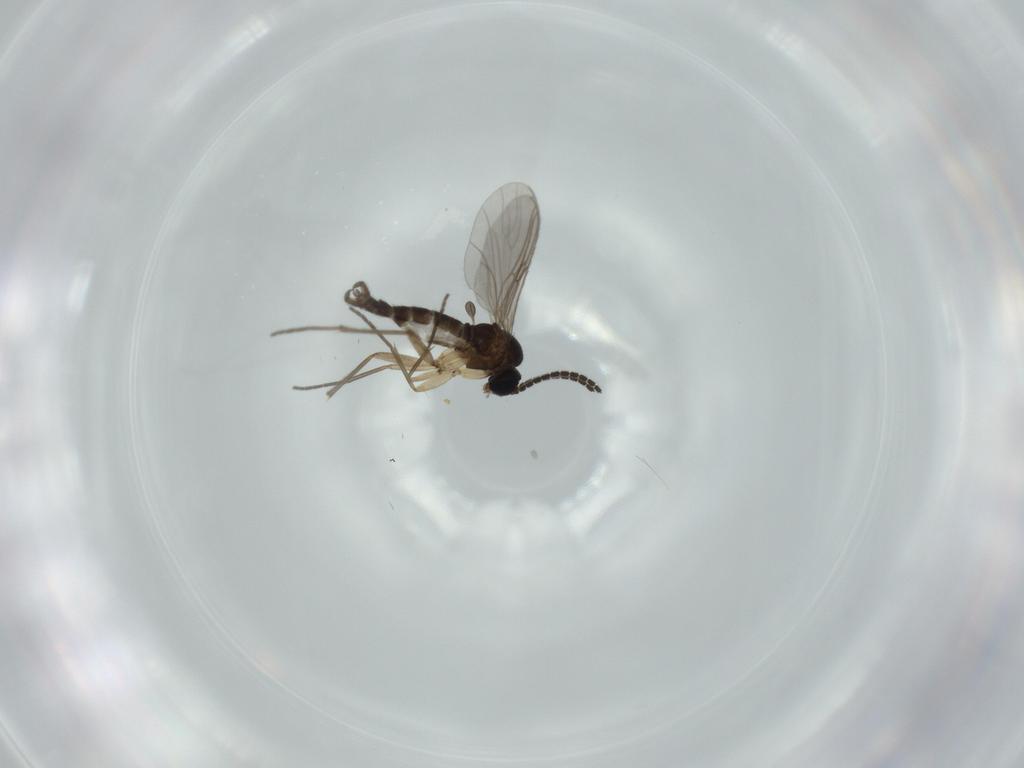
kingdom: Animalia
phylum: Arthropoda
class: Insecta
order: Diptera
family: Sciaridae
